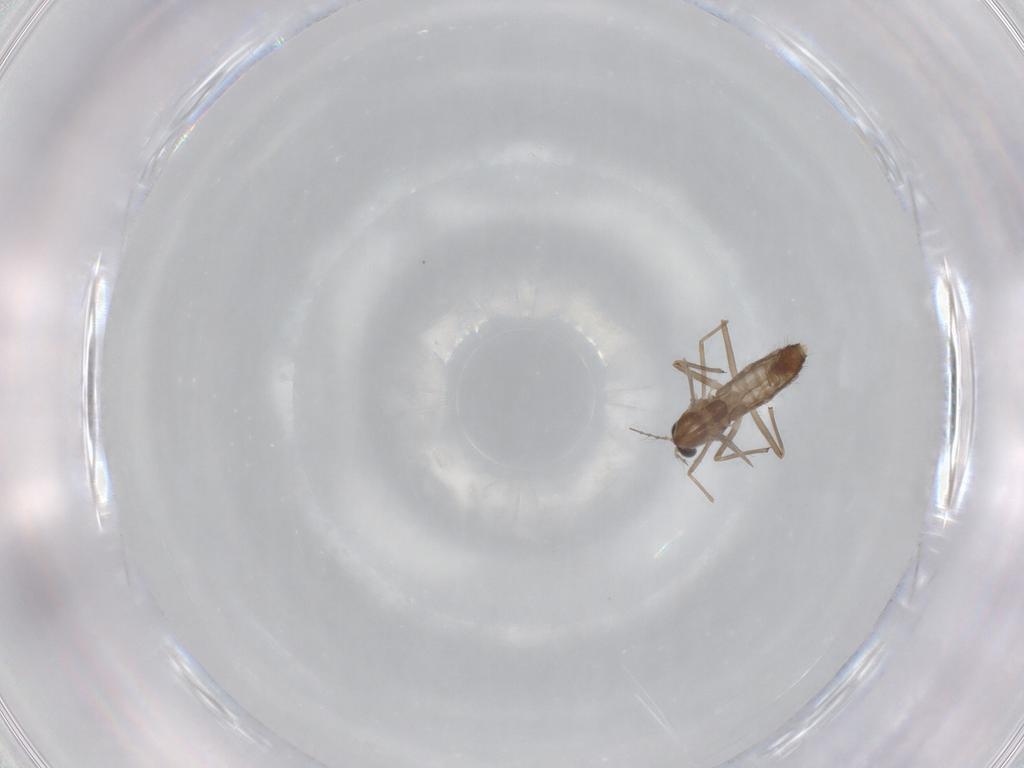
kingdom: Animalia
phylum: Arthropoda
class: Insecta
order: Diptera
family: Chironomidae
